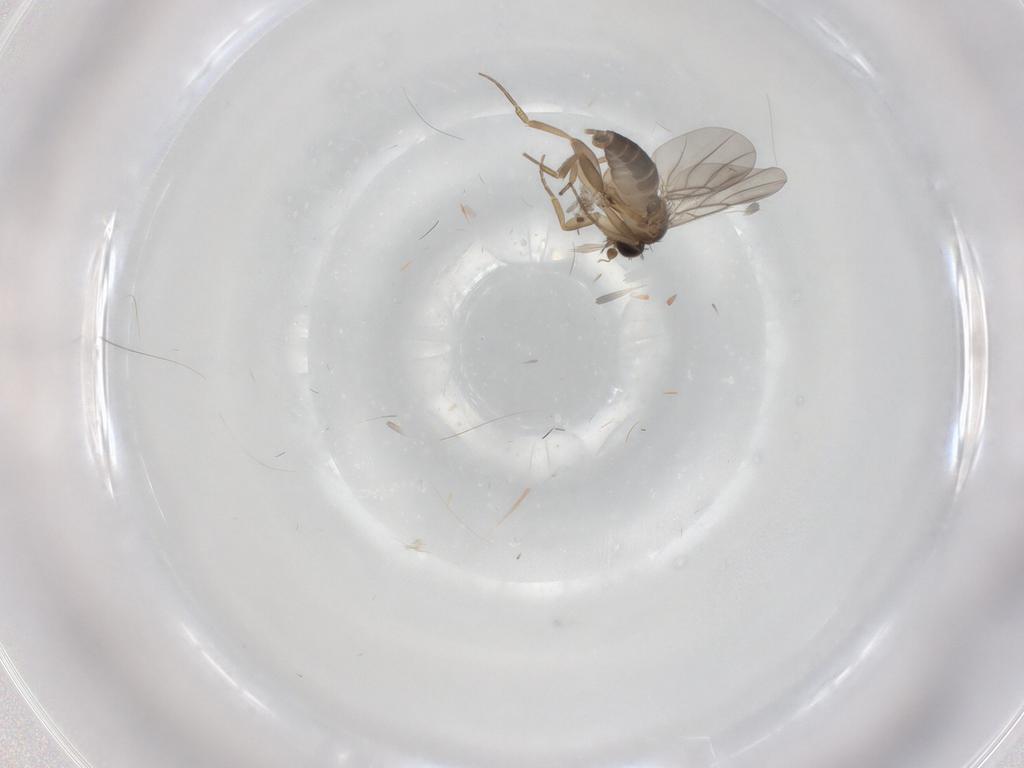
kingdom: Animalia
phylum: Arthropoda
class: Insecta
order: Diptera
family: Cecidomyiidae
